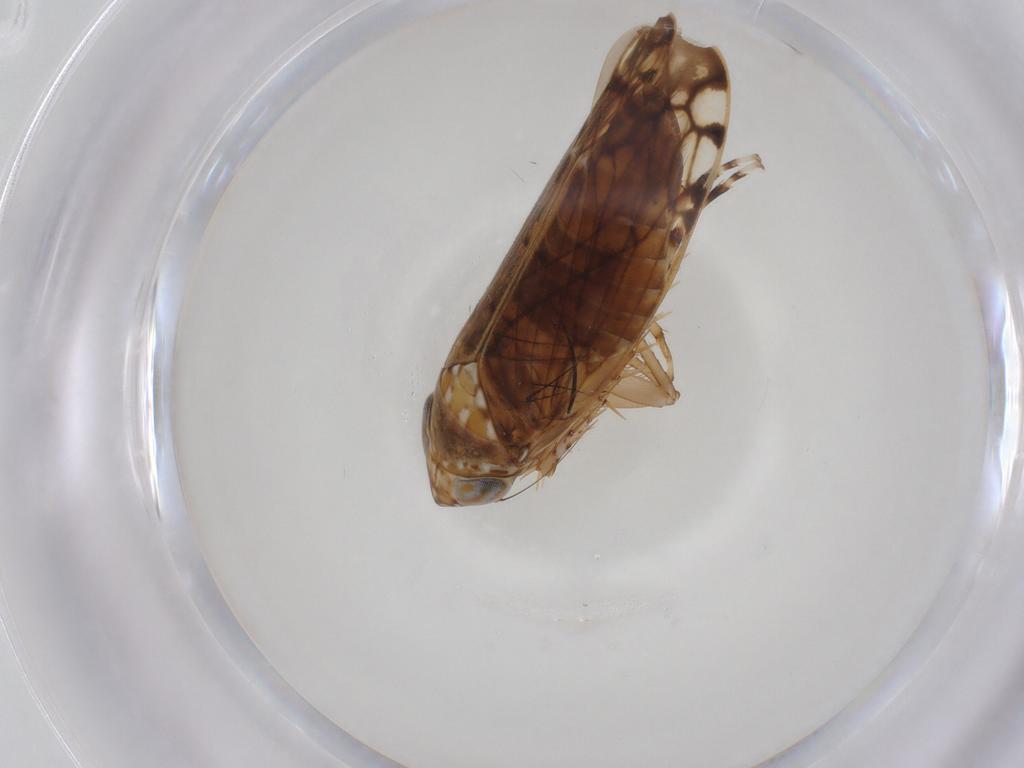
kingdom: Animalia
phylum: Arthropoda
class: Insecta
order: Hemiptera
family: Cicadellidae
